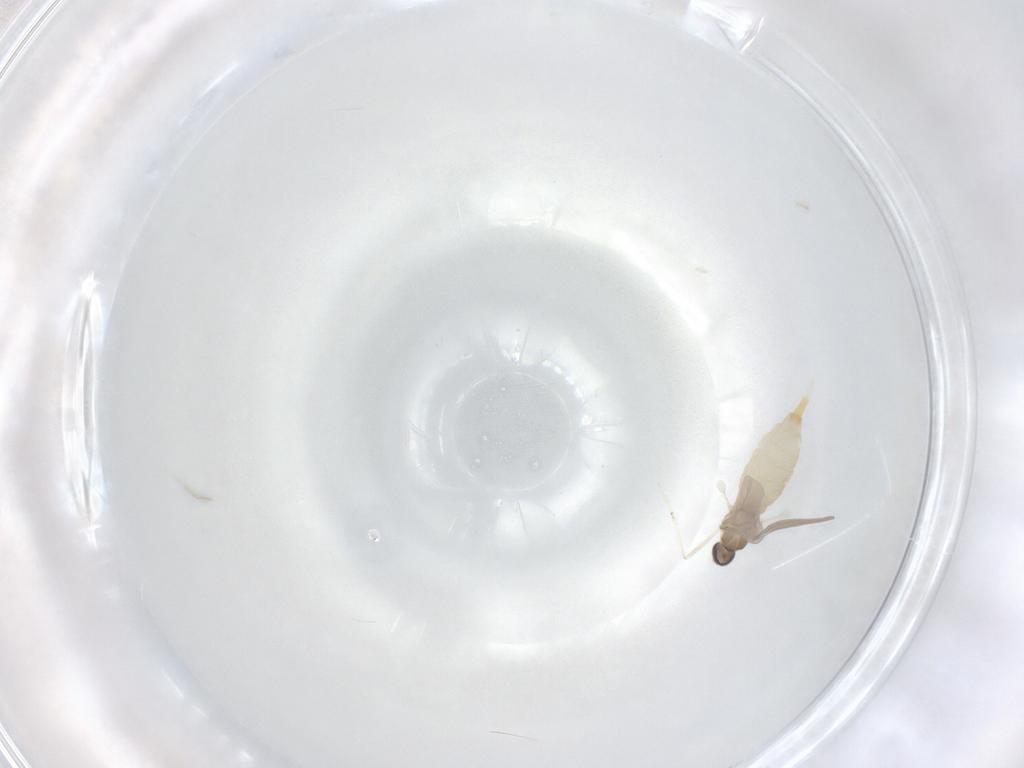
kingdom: Animalia
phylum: Arthropoda
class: Insecta
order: Diptera
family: Cecidomyiidae
